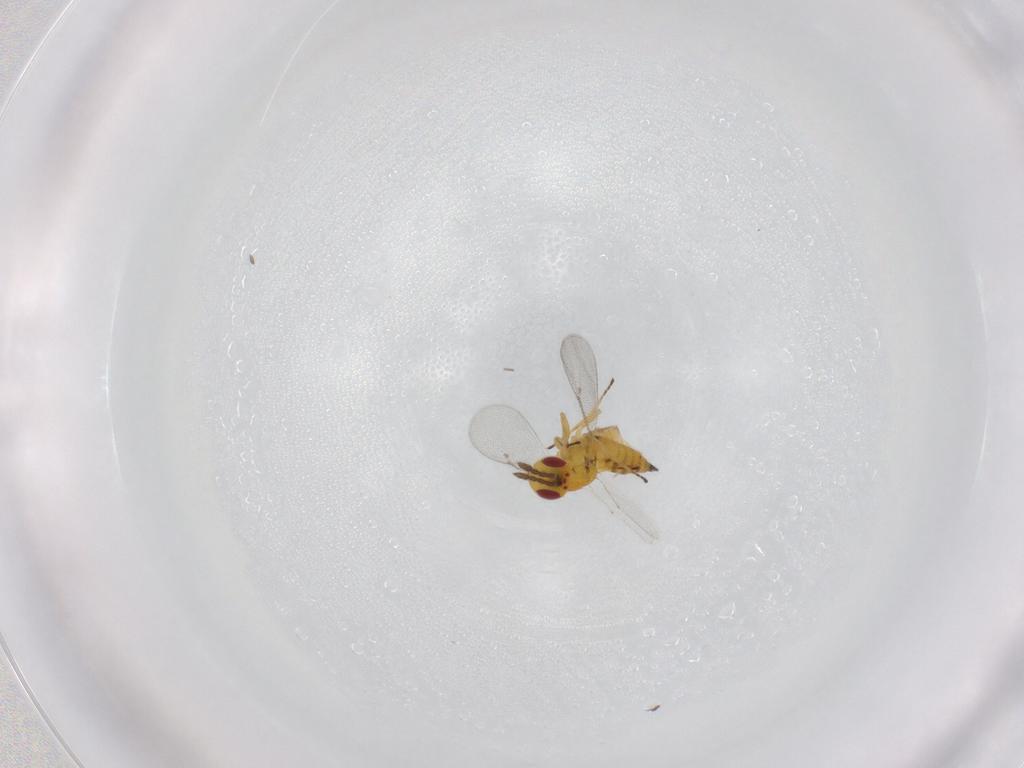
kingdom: Animalia
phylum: Arthropoda
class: Insecta
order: Hymenoptera
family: Eulophidae
